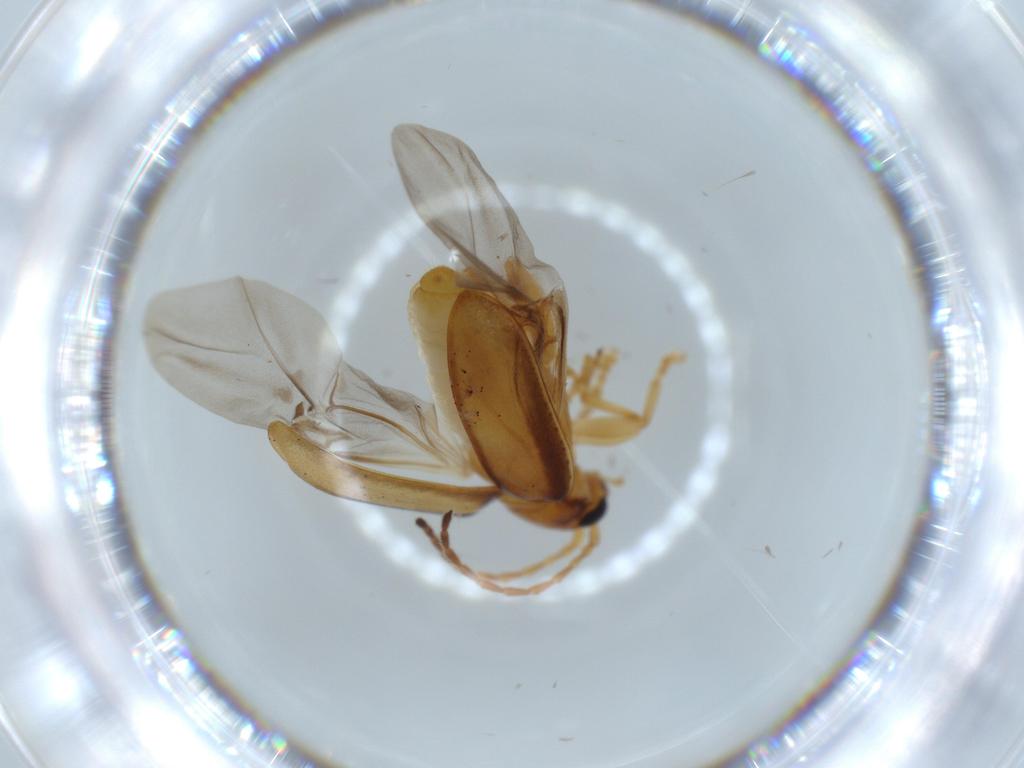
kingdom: Animalia
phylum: Arthropoda
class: Insecta
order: Coleoptera
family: Chrysomelidae
